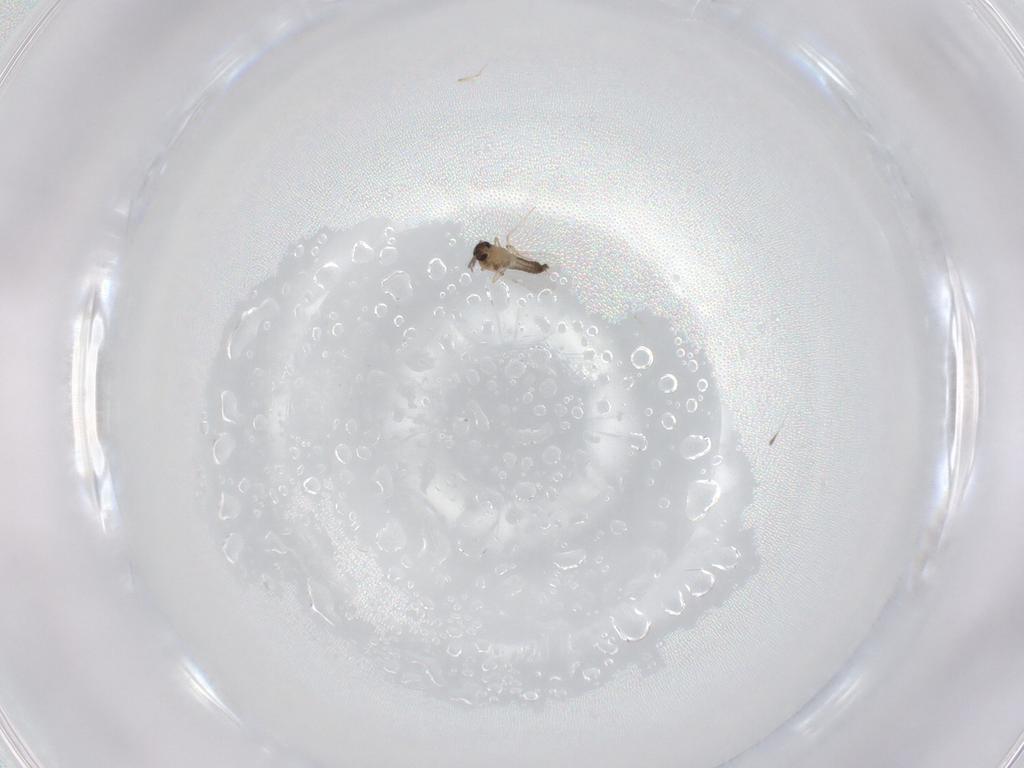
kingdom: Animalia
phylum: Arthropoda
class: Insecta
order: Diptera
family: Ceratopogonidae
